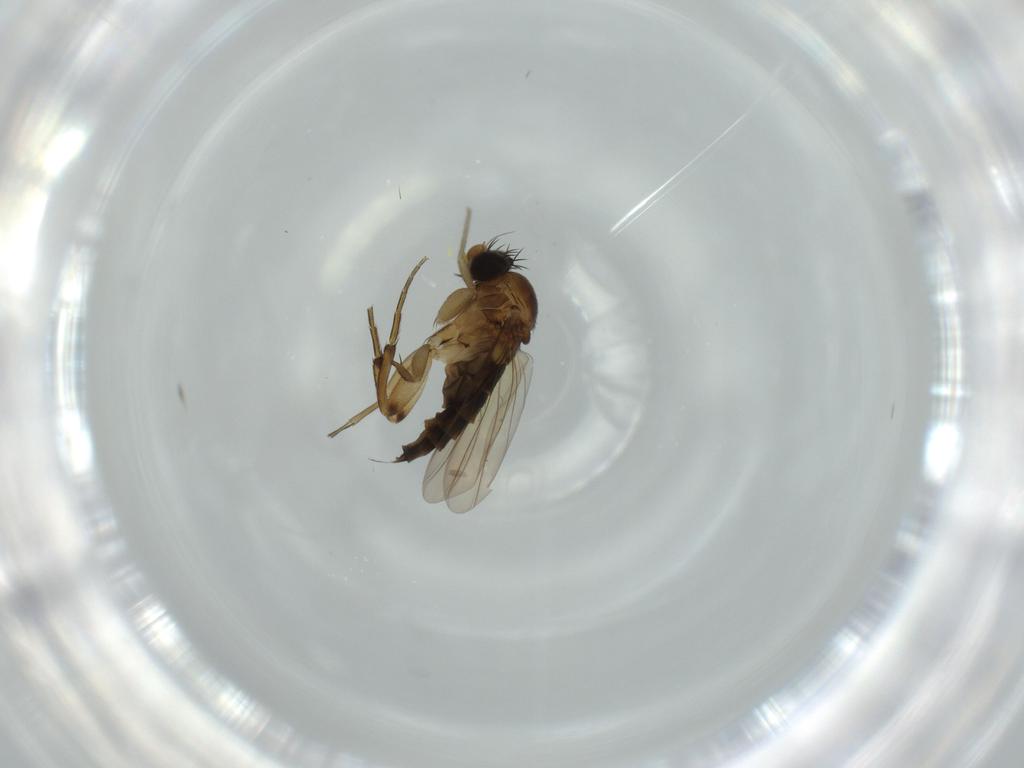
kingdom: Animalia
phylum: Arthropoda
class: Insecta
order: Diptera
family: Phoridae
